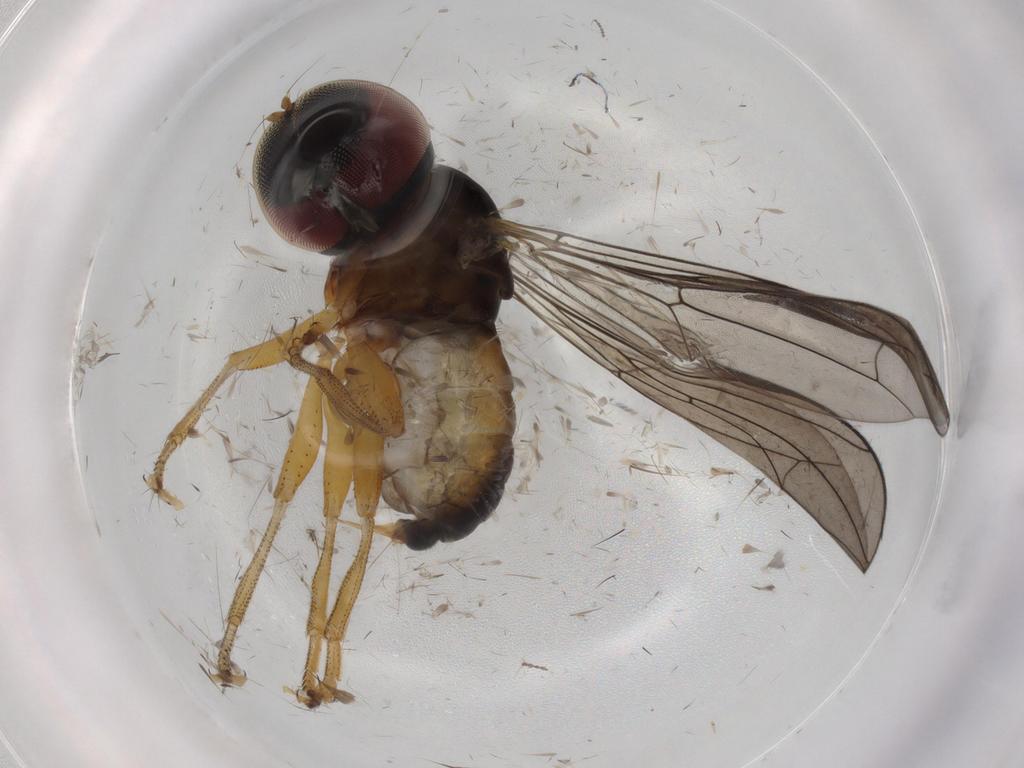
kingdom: Animalia
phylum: Arthropoda
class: Insecta
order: Diptera
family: Pipunculidae
